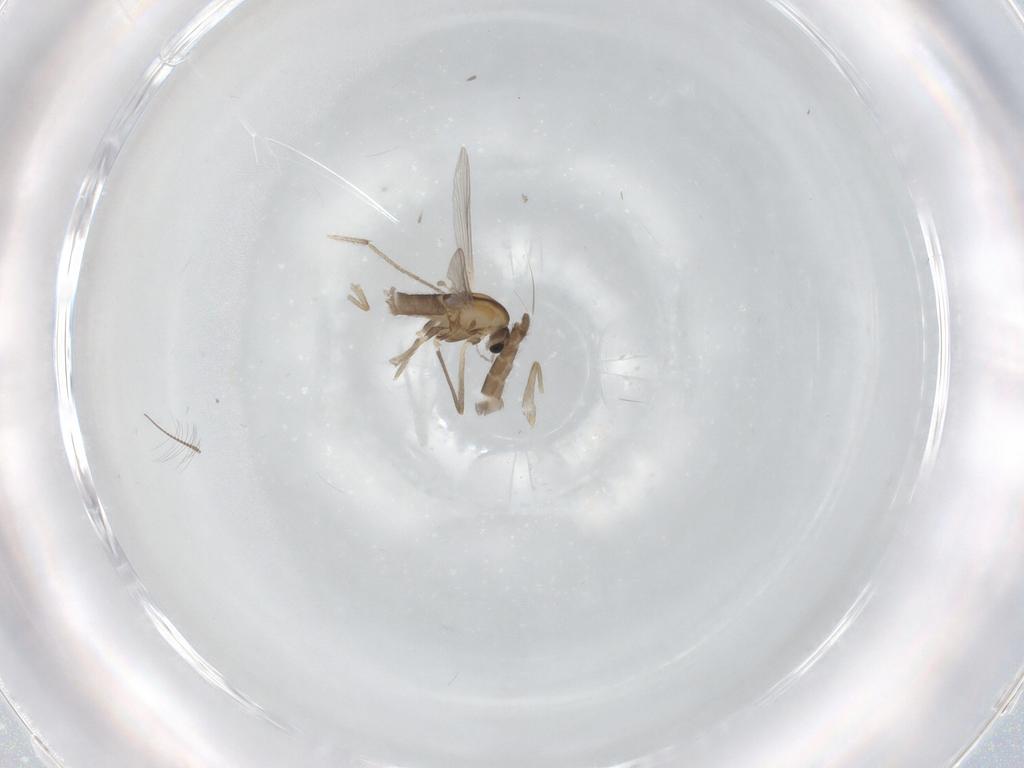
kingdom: Animalia
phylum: Arthropoda
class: Insecta
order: Diptera
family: Chironomidae
